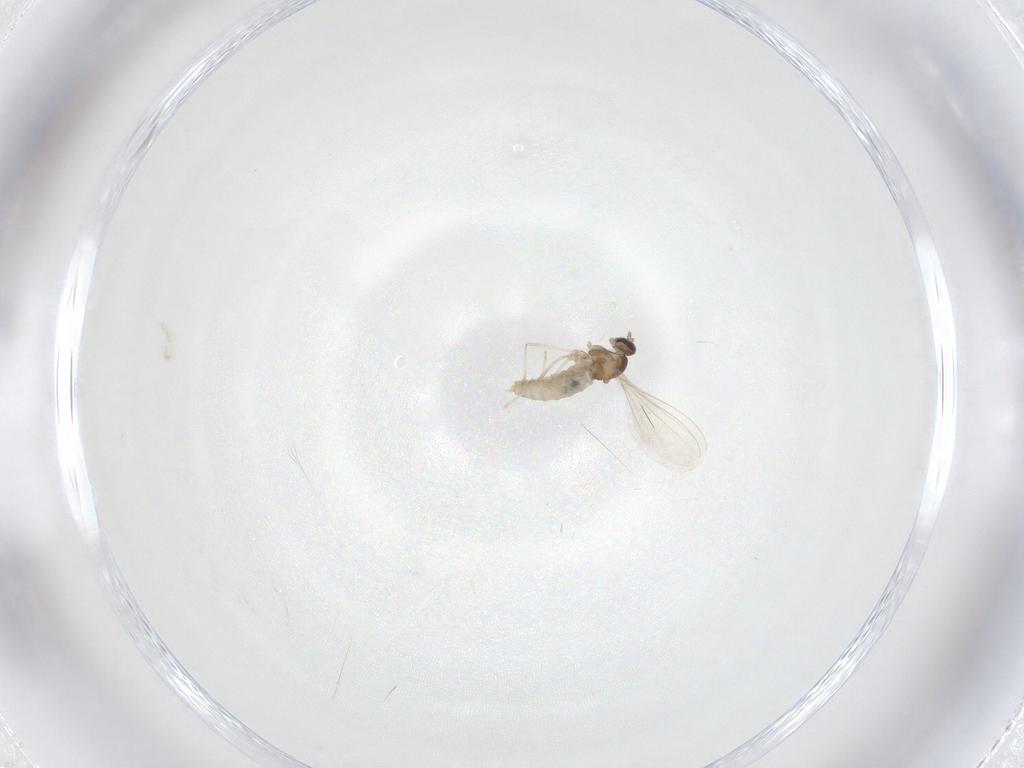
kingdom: Animalia
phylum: Arthropoda
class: Insecta
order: Diptera
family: Cecidomyiidae
